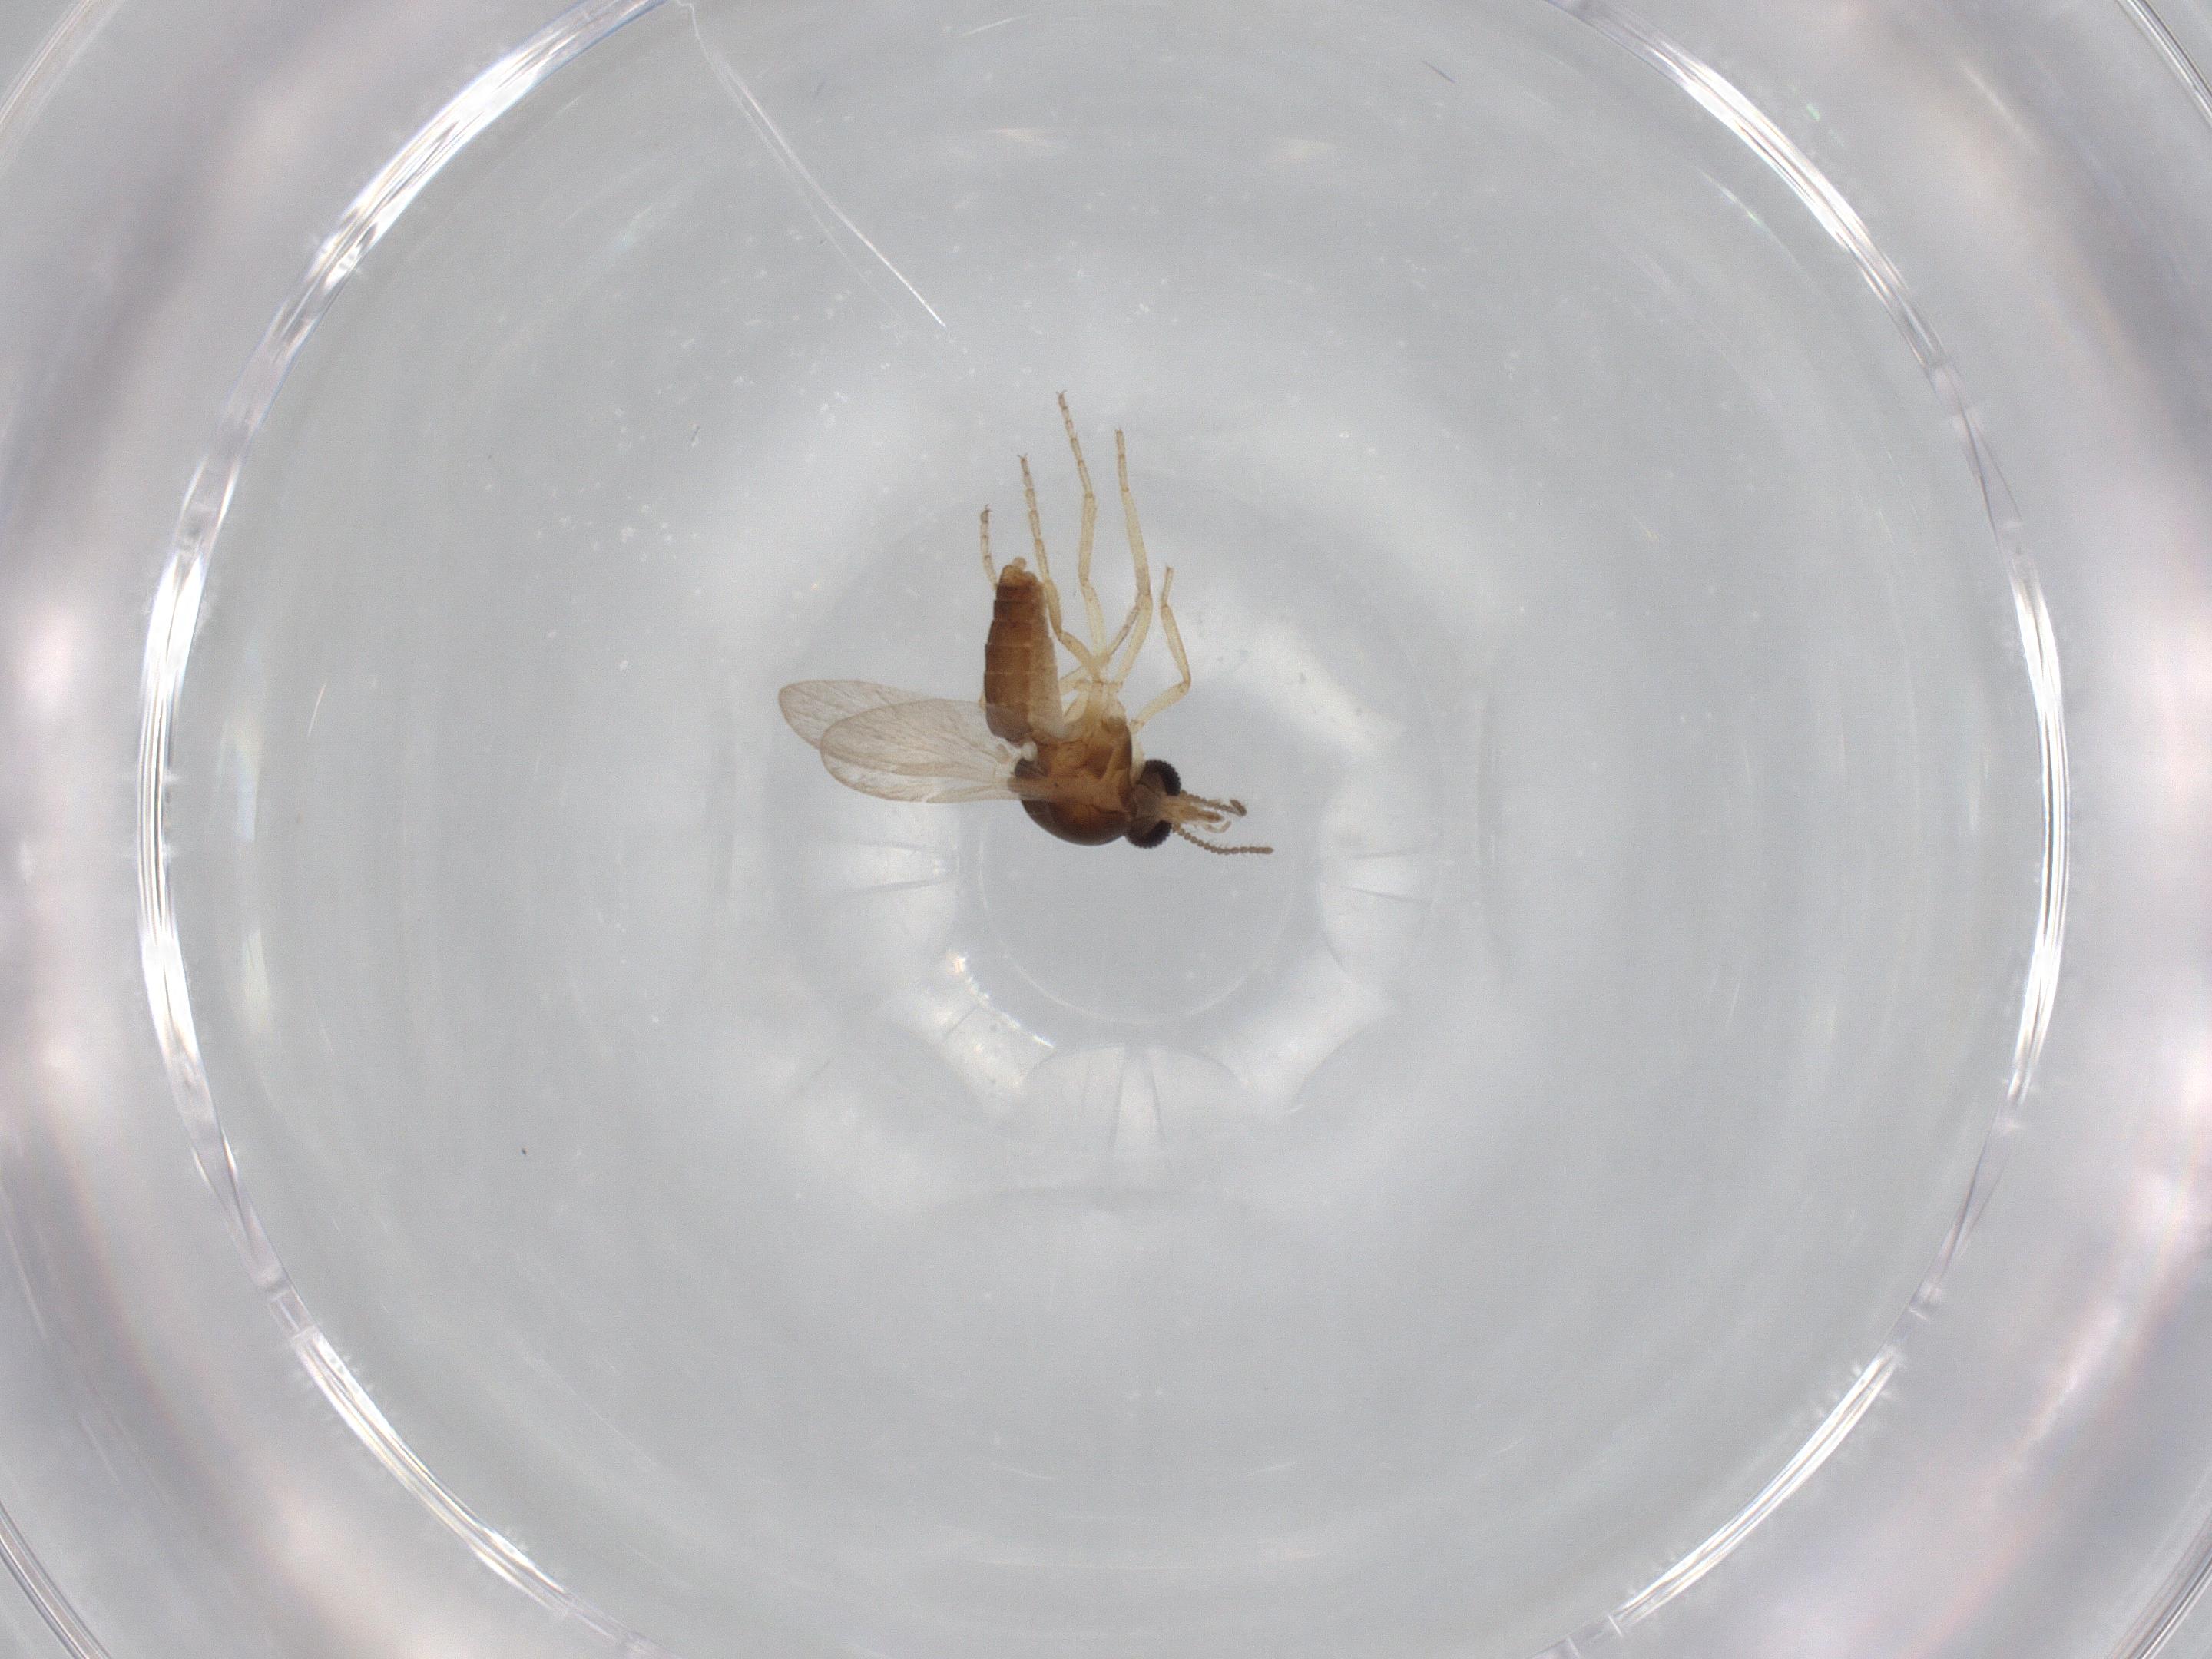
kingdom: Animalia
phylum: Arthropoda
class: Insecta
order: Diptera
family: Ceratopogonidae
